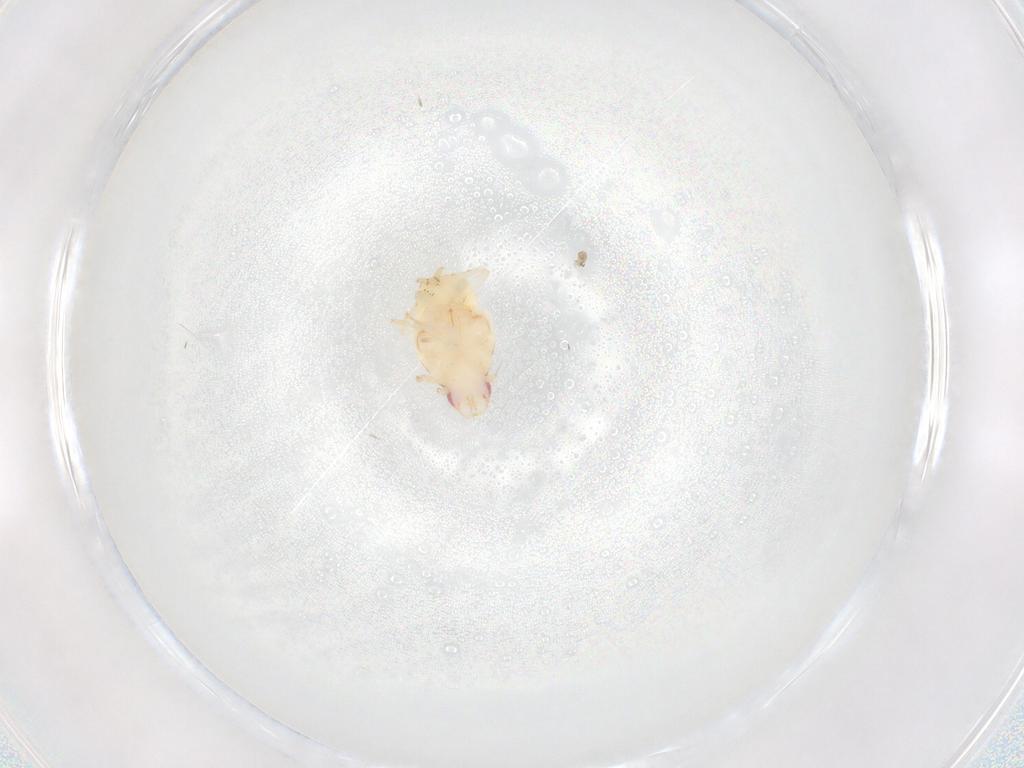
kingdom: Animalia
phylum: Arthropoda
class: Insecta
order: Hemiptera
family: Flatidae
